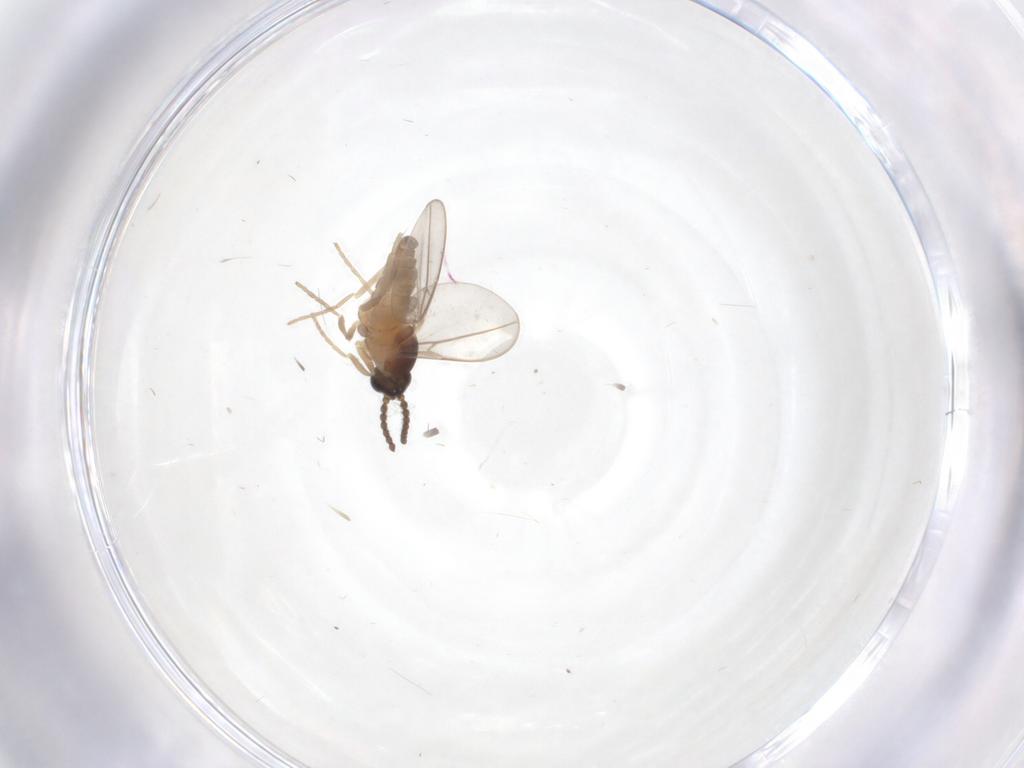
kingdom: Animalia
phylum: Arthropoda
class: Insecta
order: Diptera
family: Cecidomyiidae
